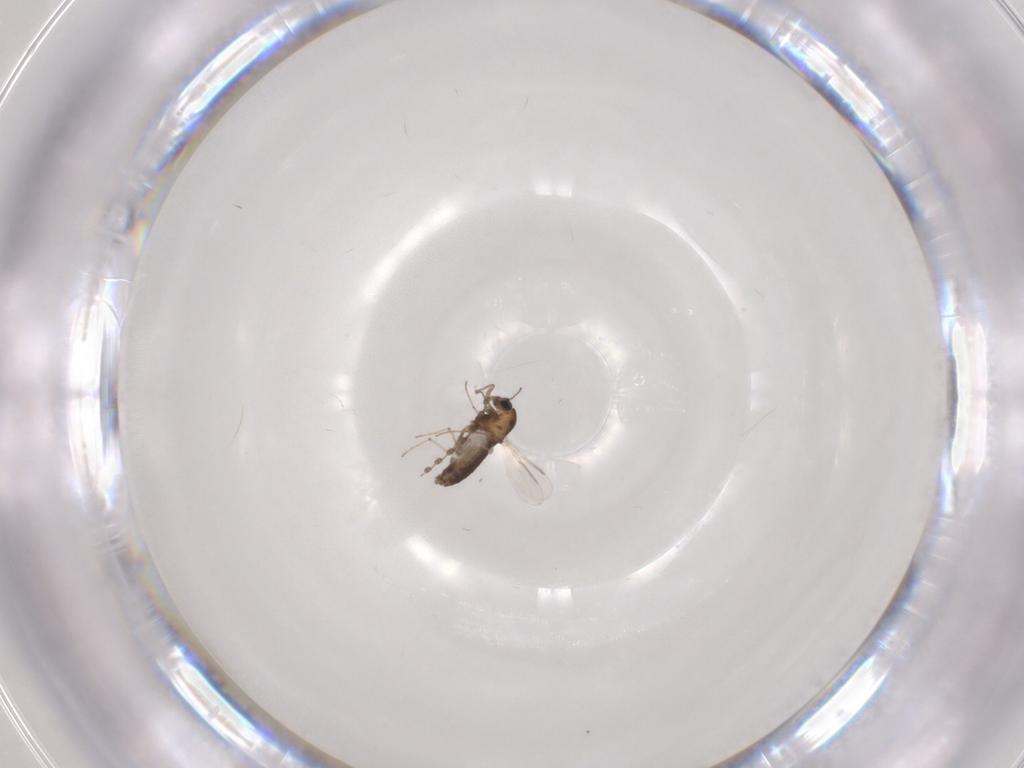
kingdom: Animalia
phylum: Arthropoda
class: Insecta
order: Diptera
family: Chironomidae
